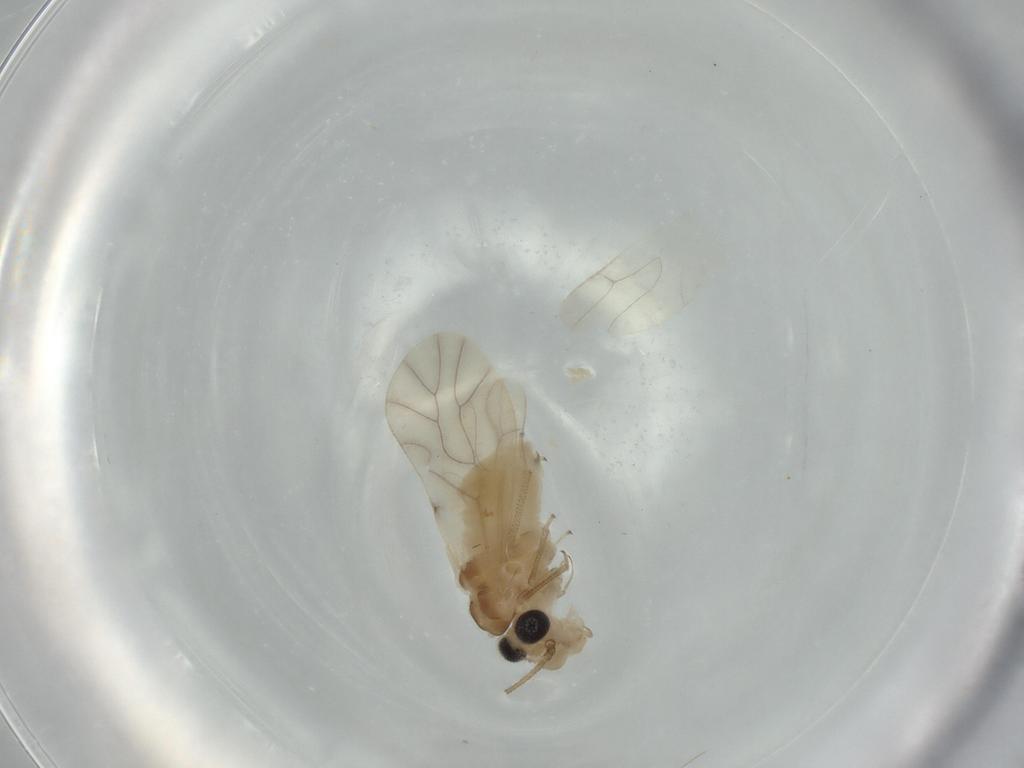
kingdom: Animalia
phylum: Arthropoda
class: Insecta
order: Psocodea
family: Caeciliusidae
